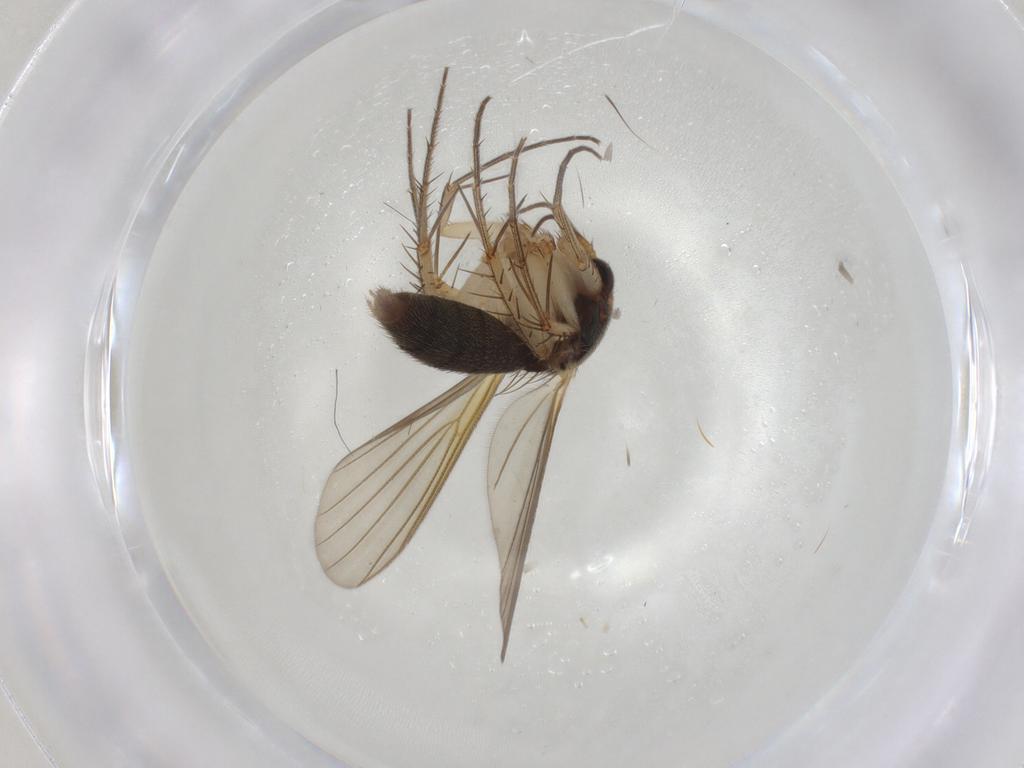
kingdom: Animalia
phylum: Arthropoda
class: Insecta
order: Diptera
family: Mycetophilidae
